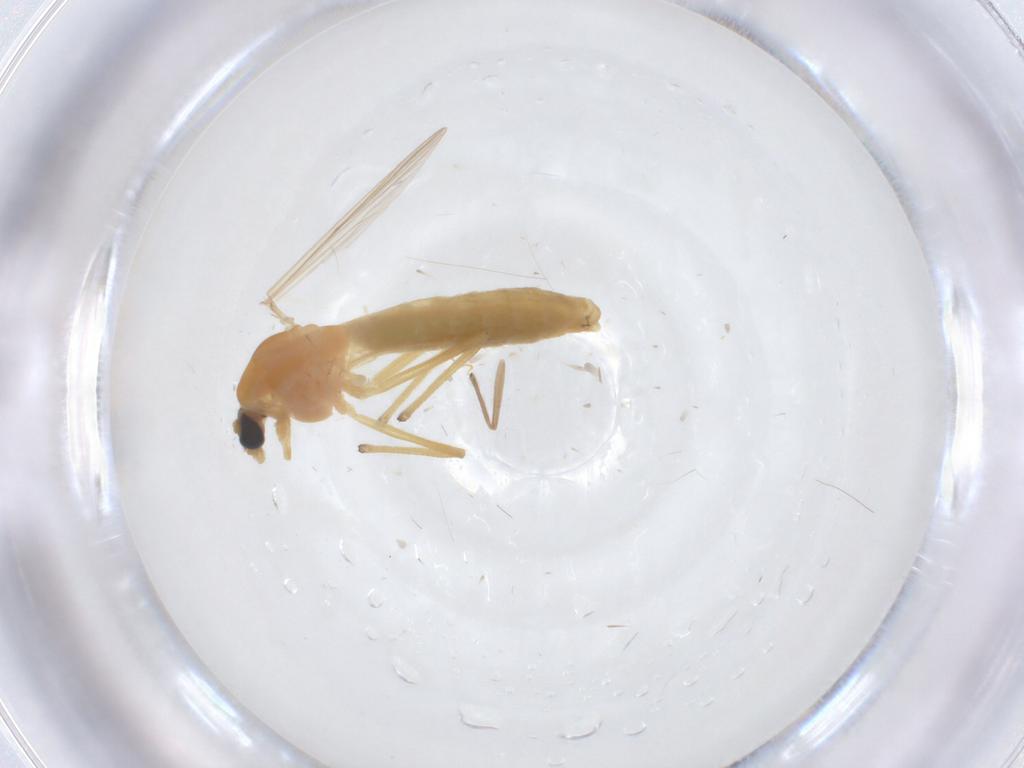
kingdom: Animalia
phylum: Arthropoda
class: Insecta
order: Diptera
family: Chironomidae
